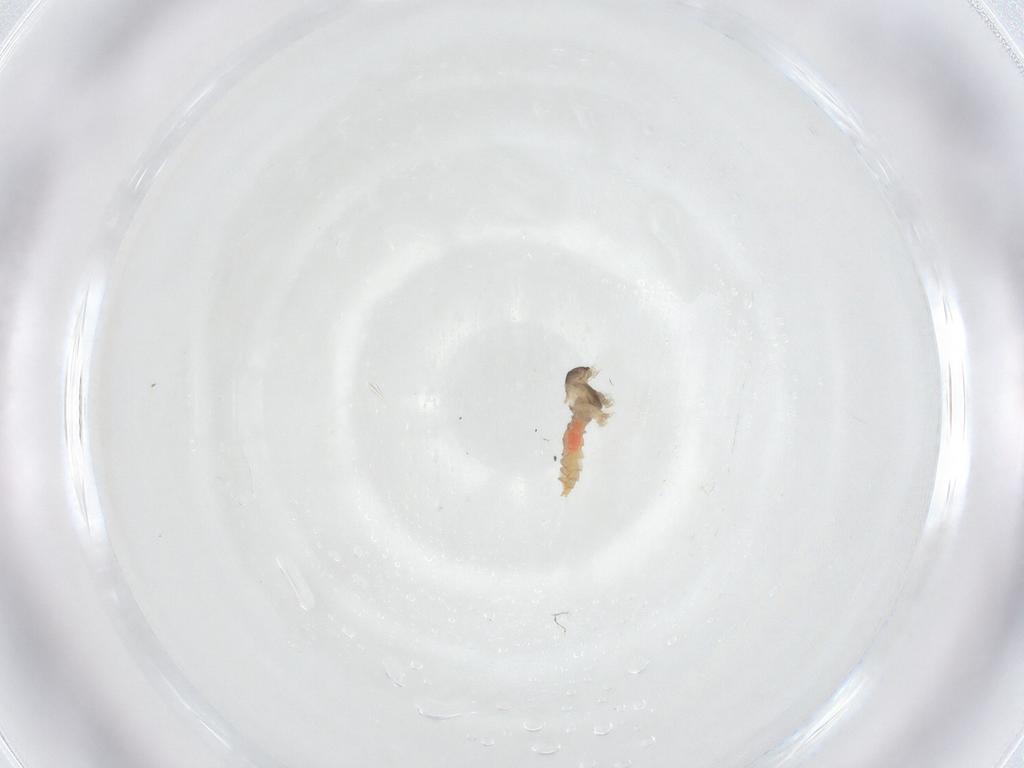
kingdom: Animalia
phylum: Arthropoda
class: Insecta
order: Diptera
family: Cecidomyiidae
